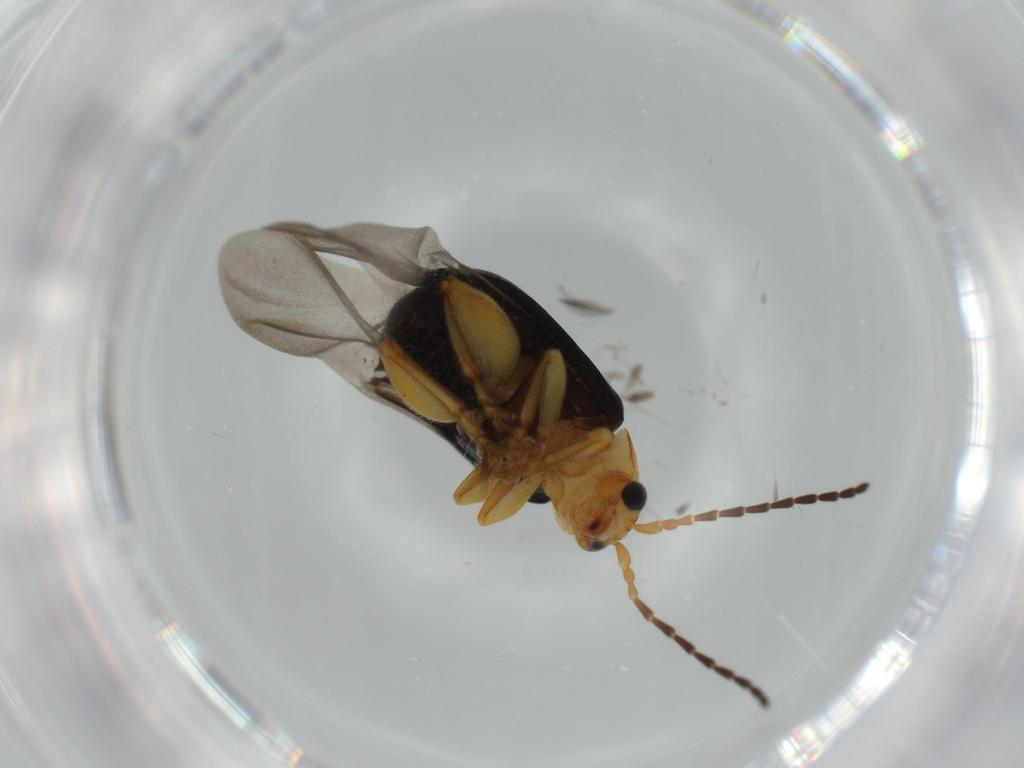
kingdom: Animalia
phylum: Arthropoda
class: Insecta
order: Coleoptera
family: Chrysomelidae
